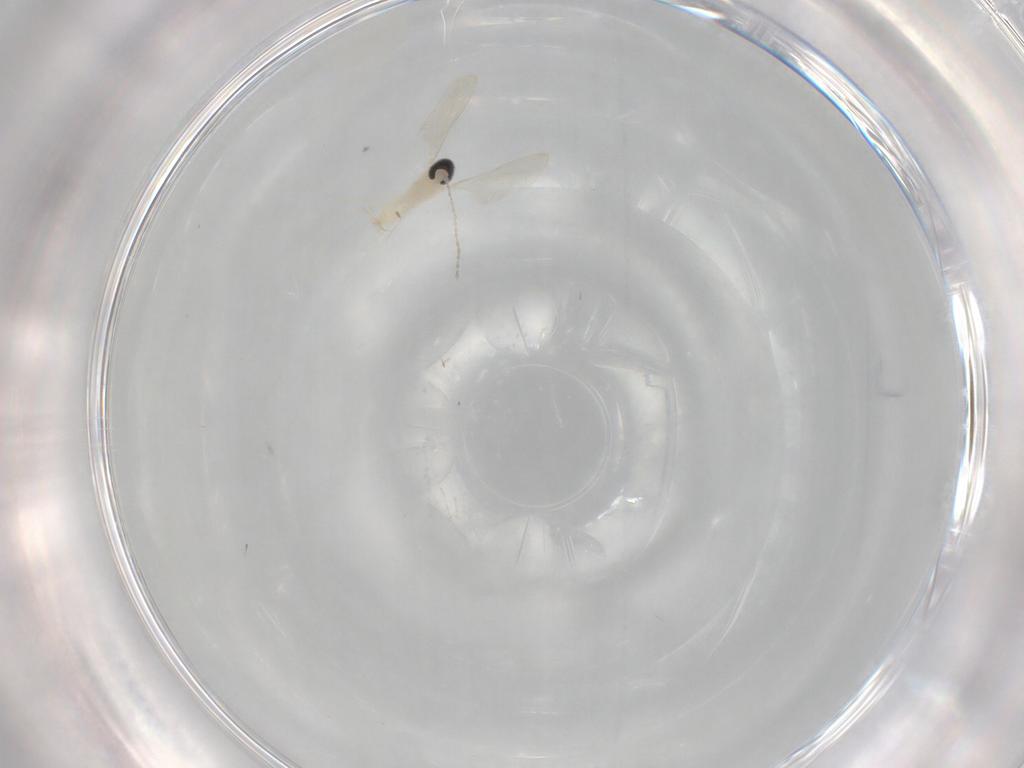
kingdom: Animalia
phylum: Arthropoda
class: Insecta
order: Diptera
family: Cecidomyiidae
